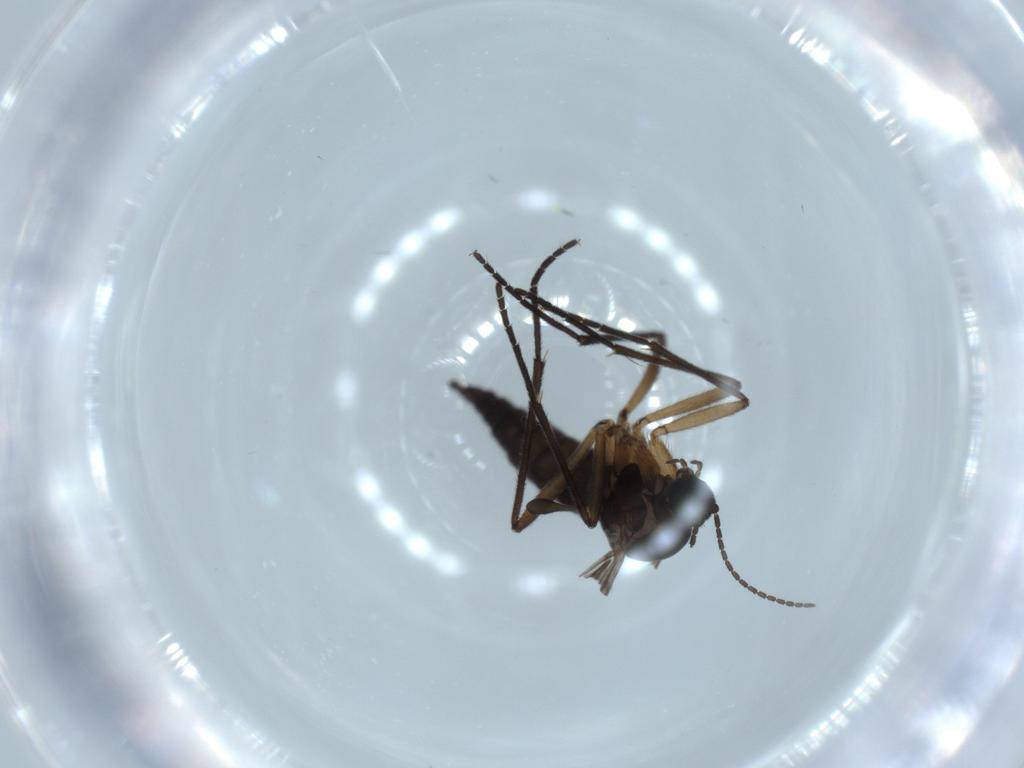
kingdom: Animalia
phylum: Arthropoda
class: Insecta
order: Diptera
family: Sciaridae
